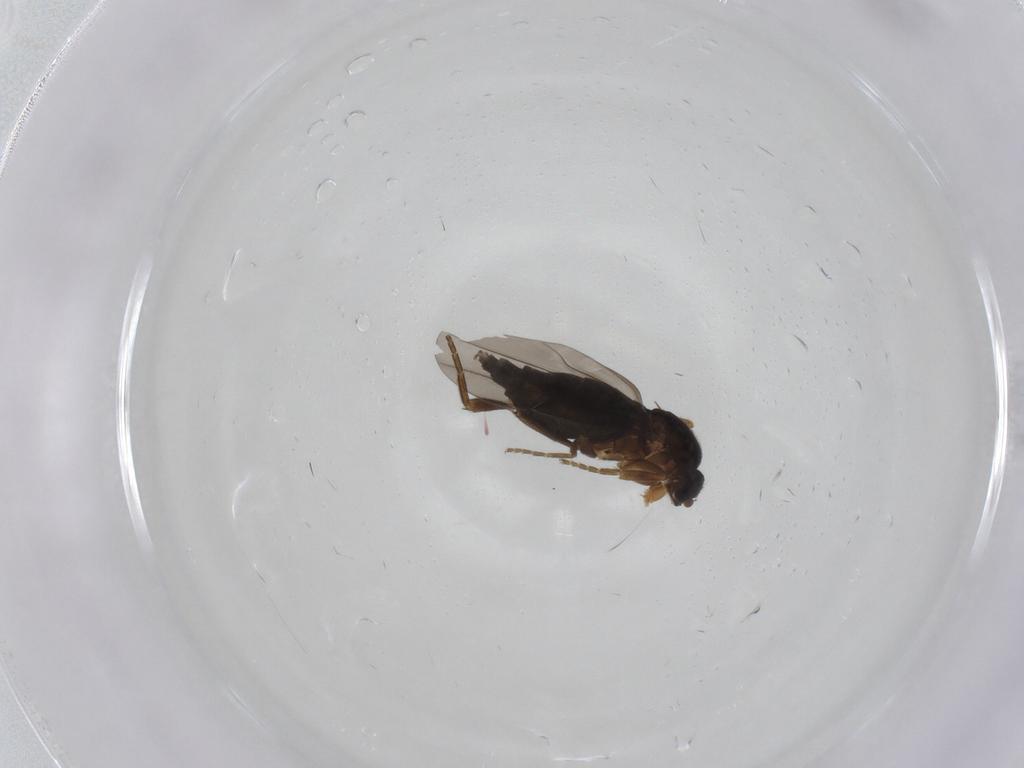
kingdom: Animalia
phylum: Arthropoda
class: Insecta
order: Diptera
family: Phoridae
